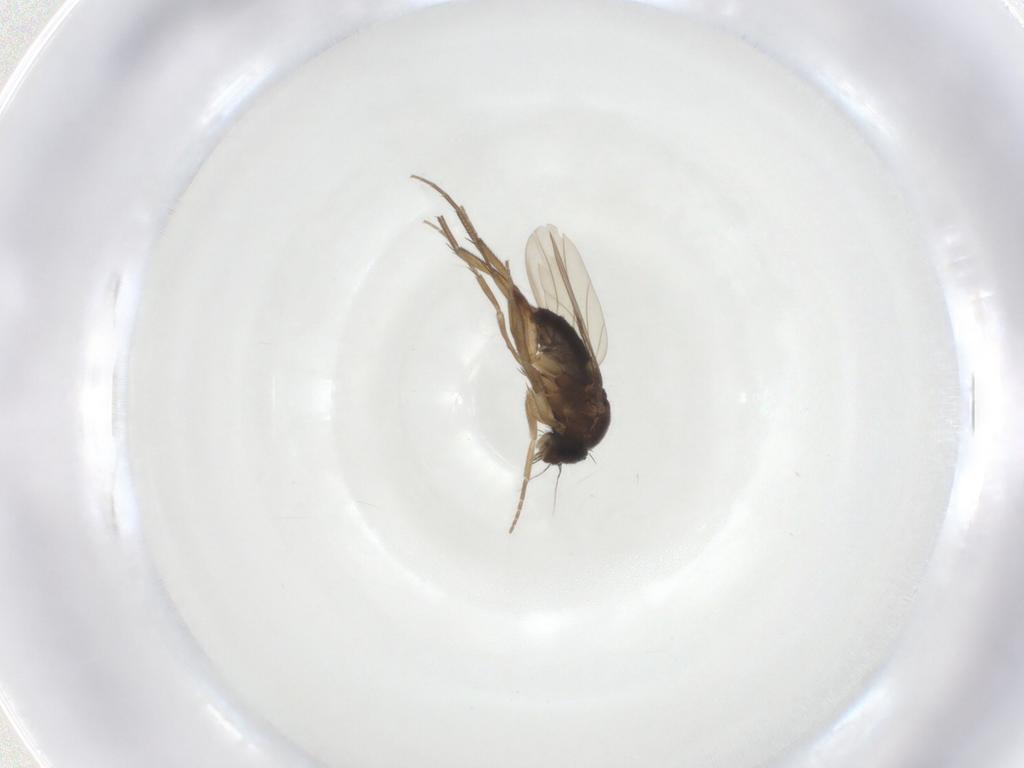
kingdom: Animalia
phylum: Arthropoda
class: Insecta
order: Diptera
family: Phoridae
